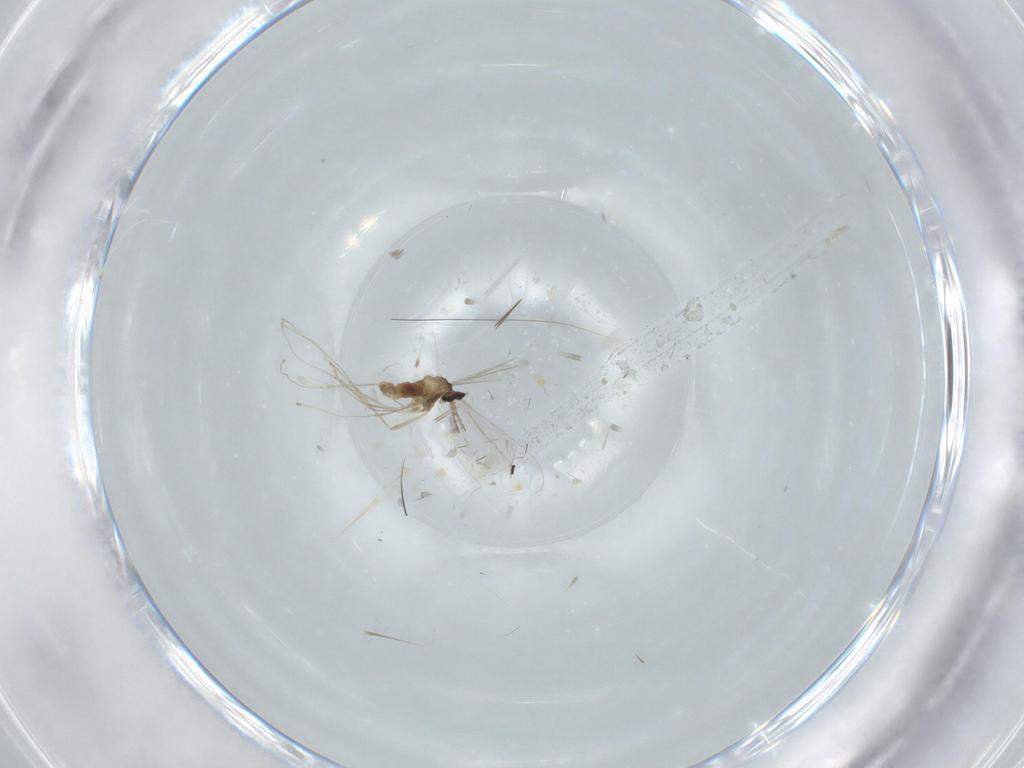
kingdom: Animalia
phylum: Arthropoda
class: Insecta
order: Diptera
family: Cecidomyiidae
